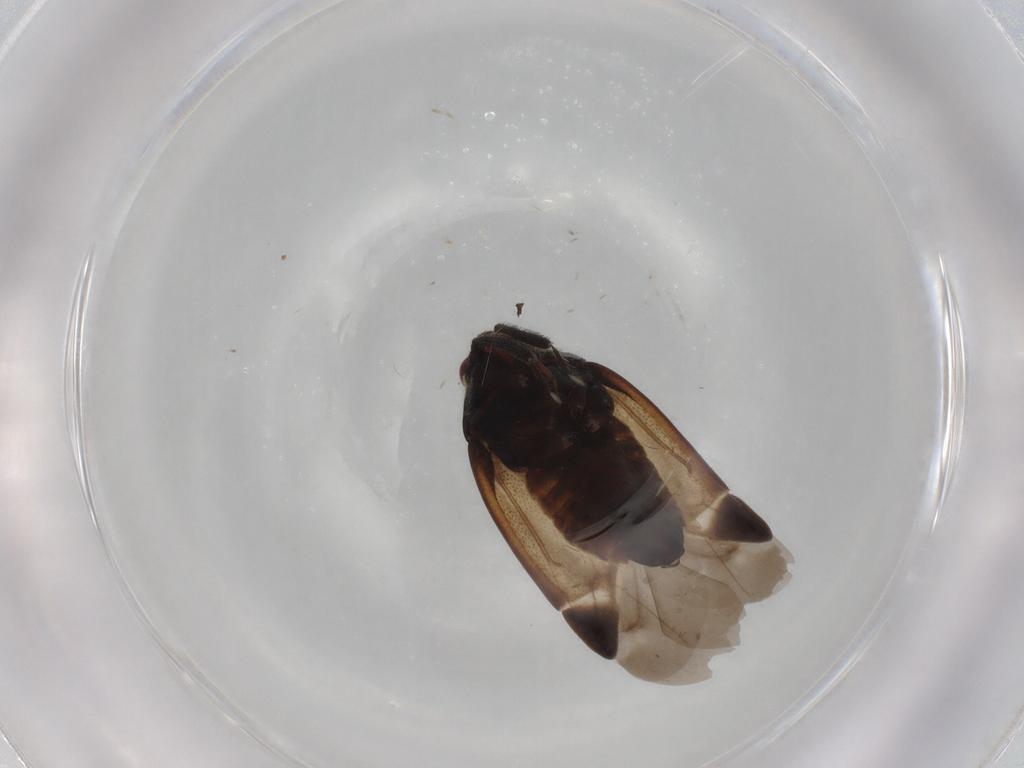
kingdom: Animalia
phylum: Arthropoda
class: Insecta
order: Hemiptera
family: Miridae
